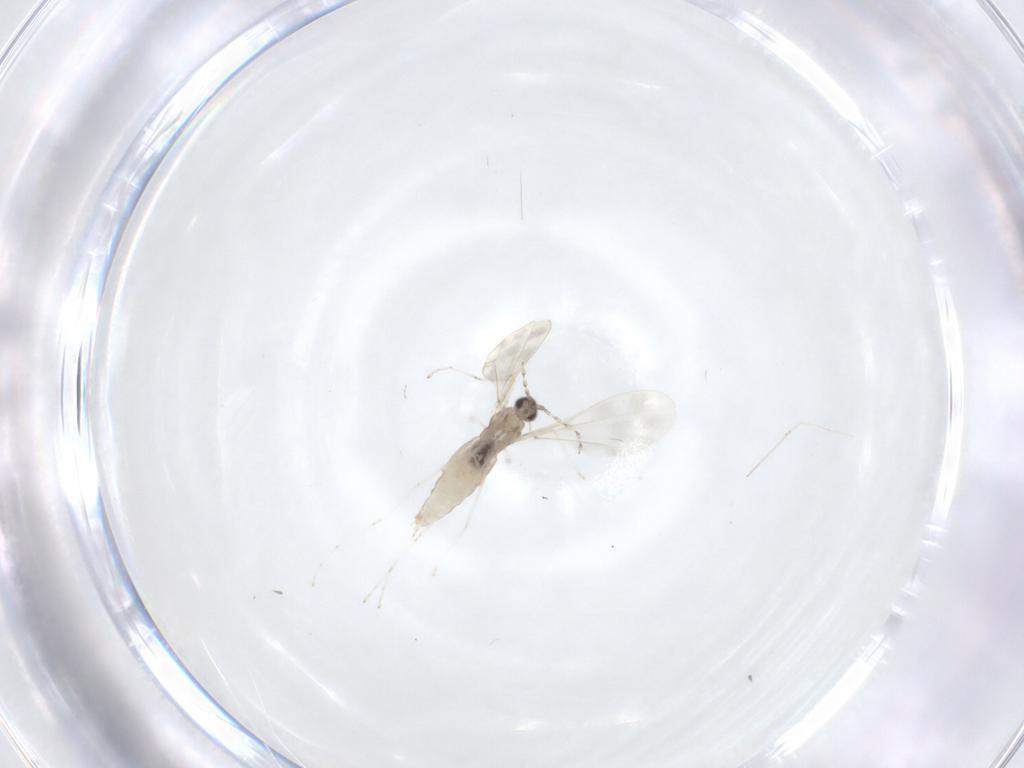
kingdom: Animalia
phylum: Arthropoda
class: Insecta
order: Diptera
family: Cecidomyiidae
